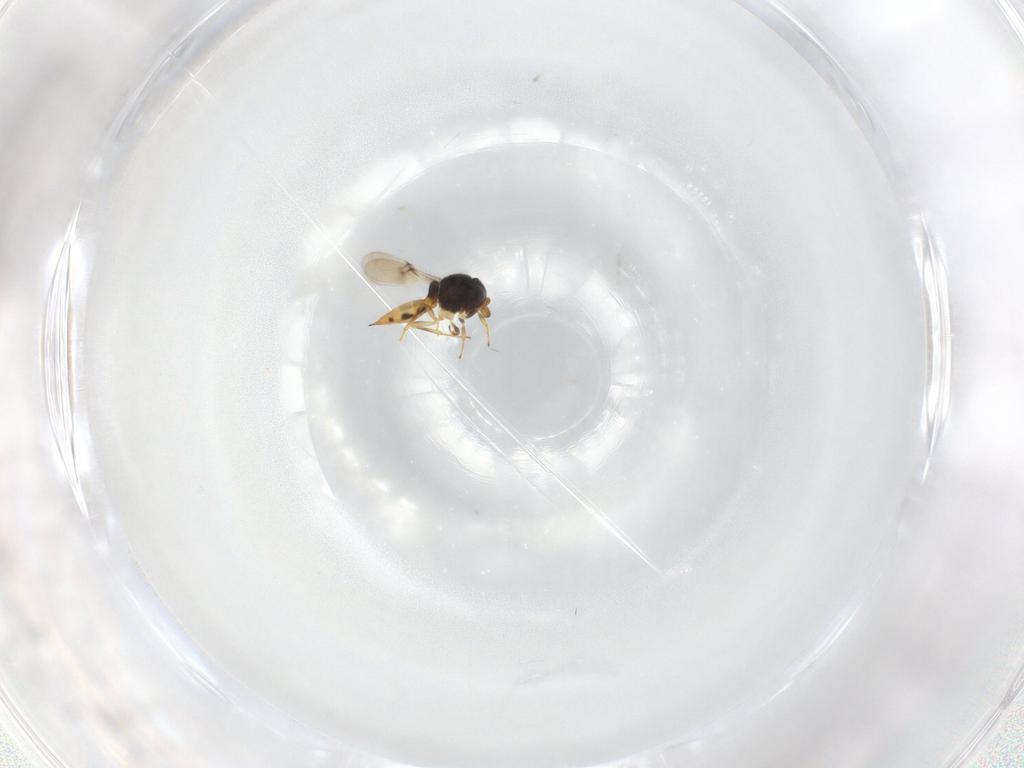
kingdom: Animalia
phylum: Arthropoda
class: Insecta
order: Hymenoptera
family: Scelionidae
